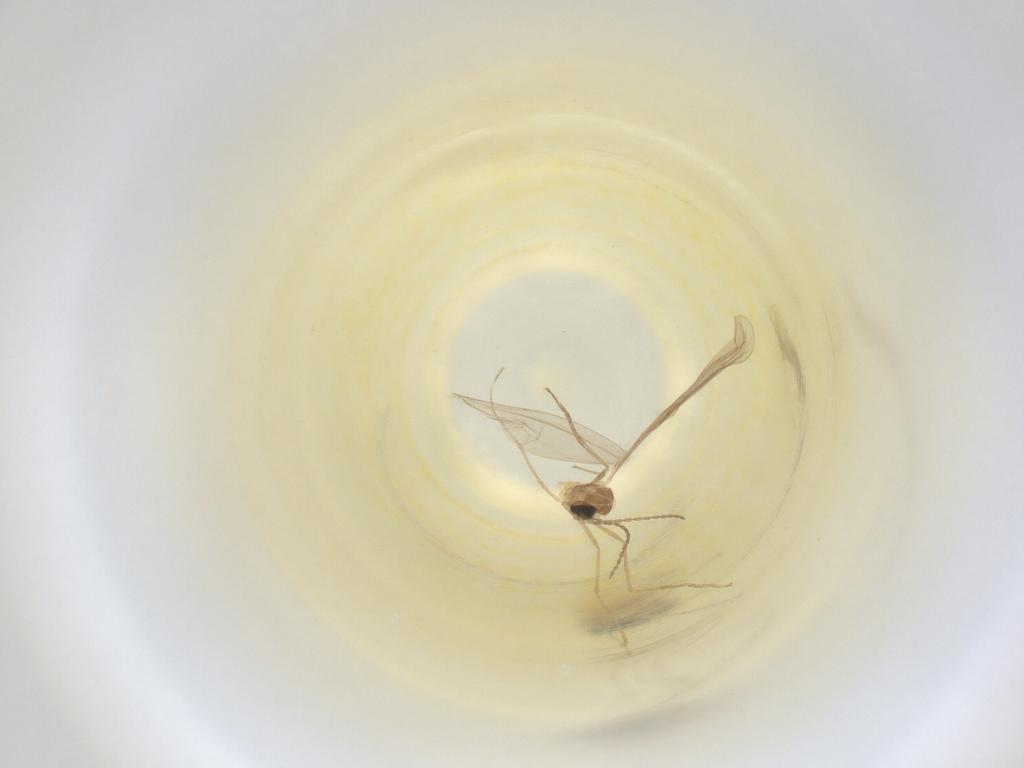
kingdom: Animalia
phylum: Arthropoda
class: Insecta
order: Diptera
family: Cecidomyiidae
